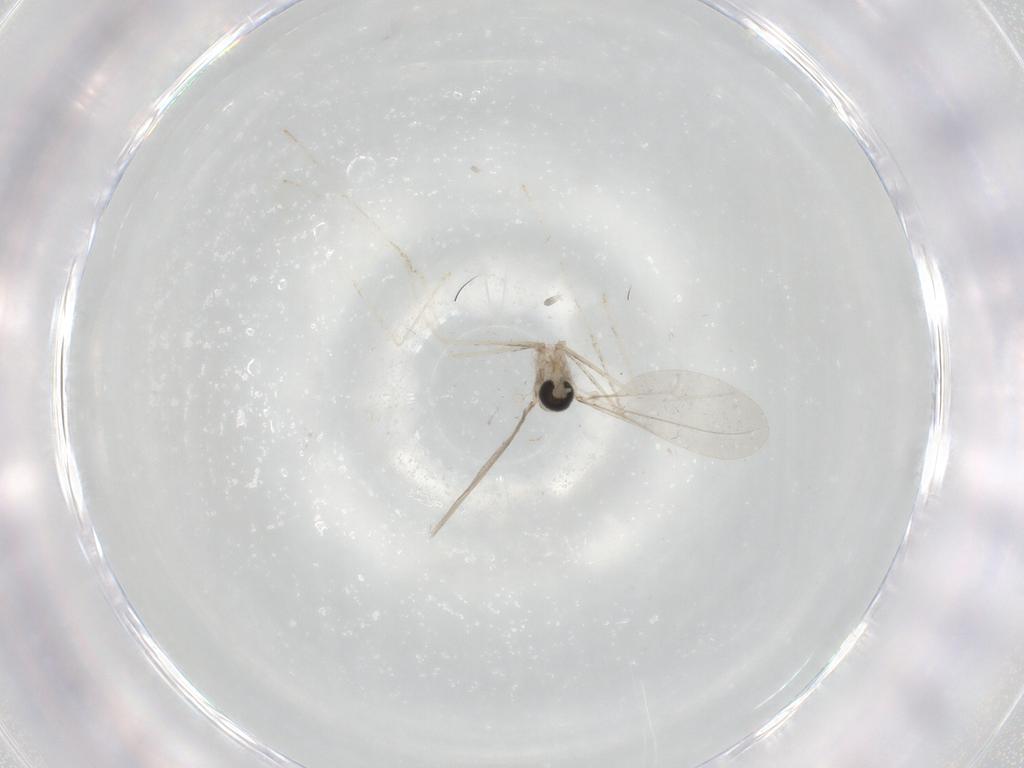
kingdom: Animalia
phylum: Arthropoda
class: Insecta
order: Diptera
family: Cecidomyiidae
